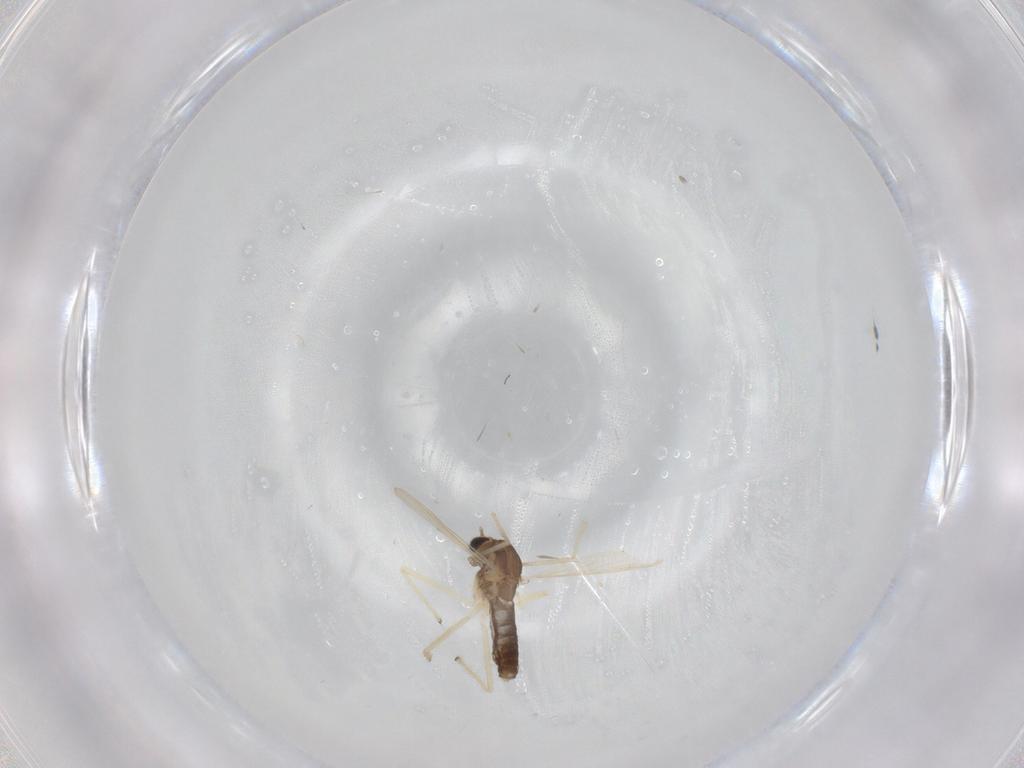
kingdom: Animalia
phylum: Arthropoda
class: Insecta
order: Diptera
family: Chironomidae
